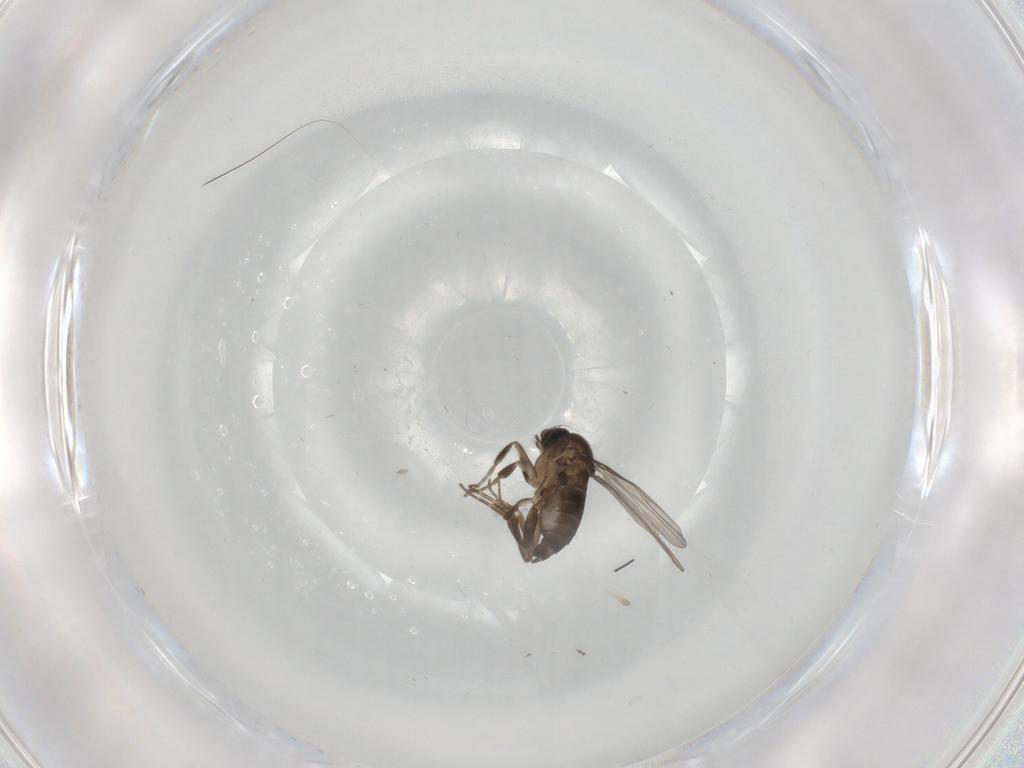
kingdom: Animalia
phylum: Arthropoda
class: Insecta
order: Diptera
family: Phoridae
